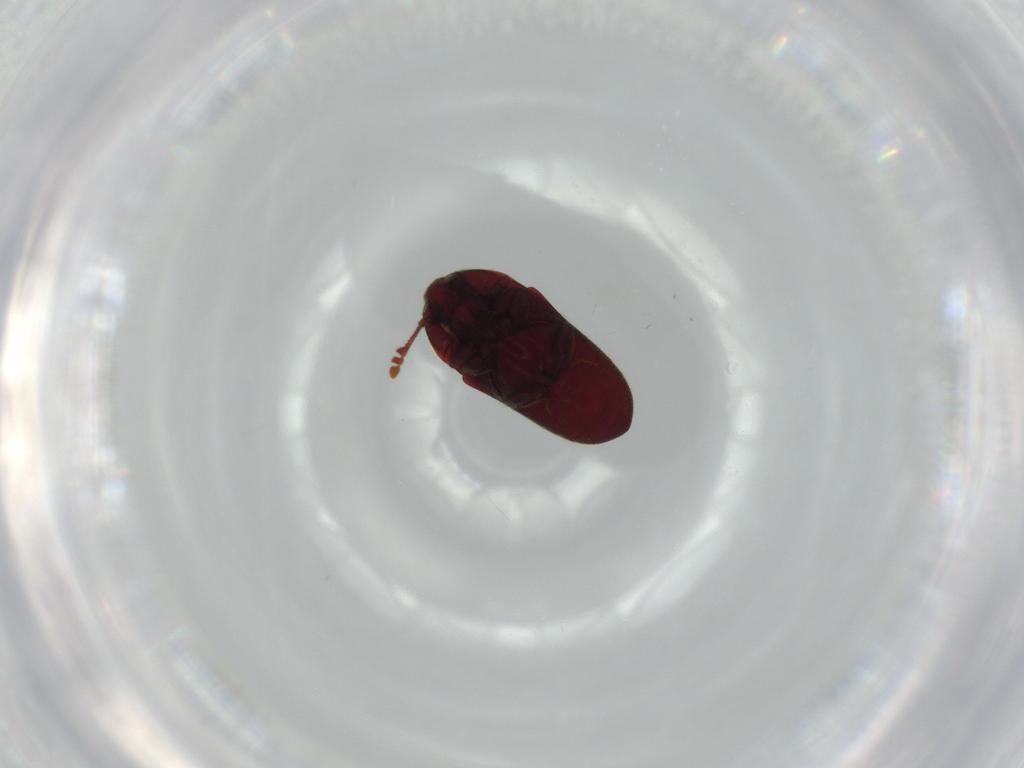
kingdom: Animalia
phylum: Arthropoda
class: Insecta
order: Coleoptera
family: Throscidae
